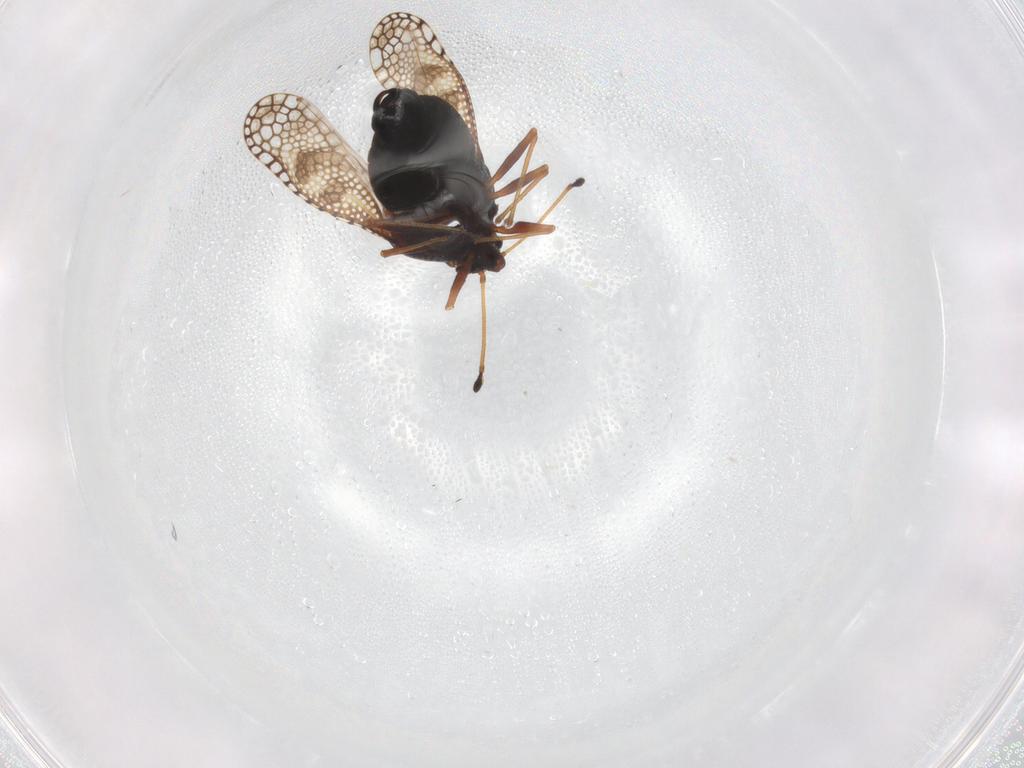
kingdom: Animalia
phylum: Arthropoda
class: Insecta
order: Hemiptera
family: Tingidae
